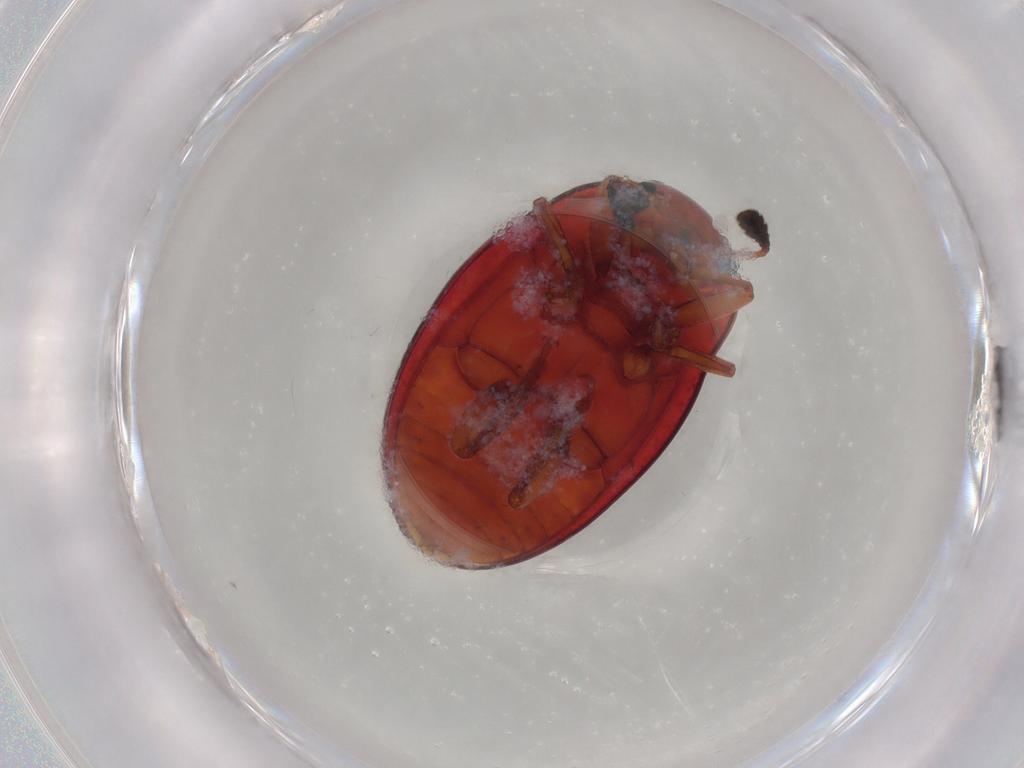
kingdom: Animalia
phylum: Arthropoda
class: Insecta
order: Coleoptera
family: Erotylidae
